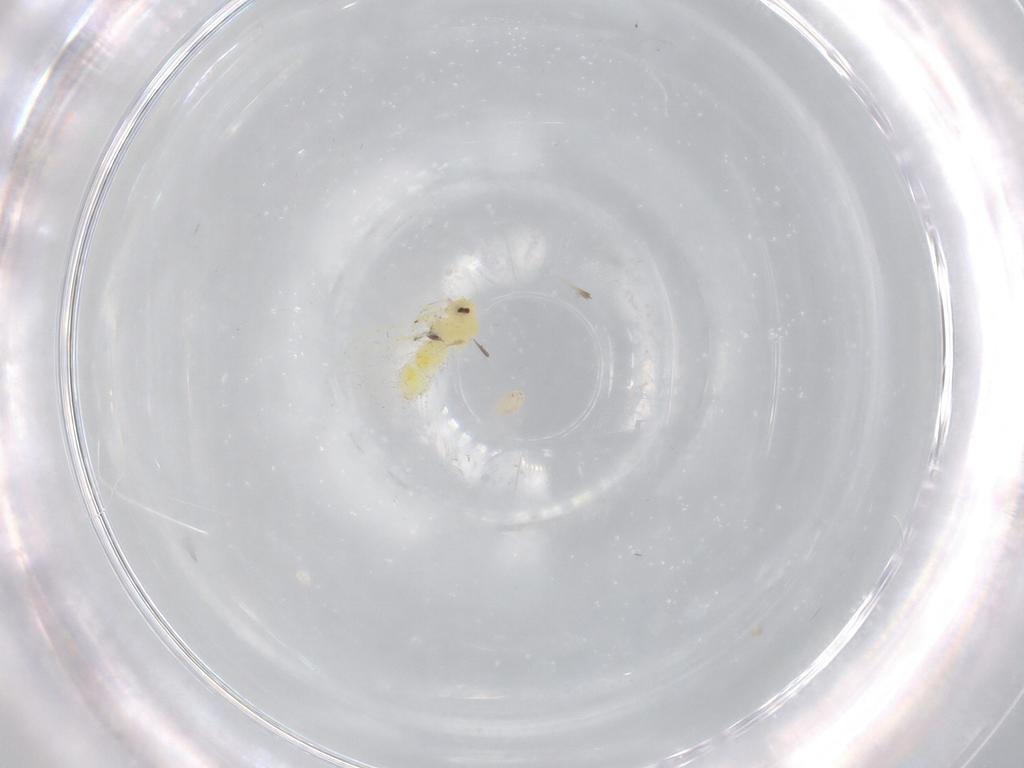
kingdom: Animalia
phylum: Arthropoda
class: Insecta
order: Hemiptera
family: Aleyrodidae
